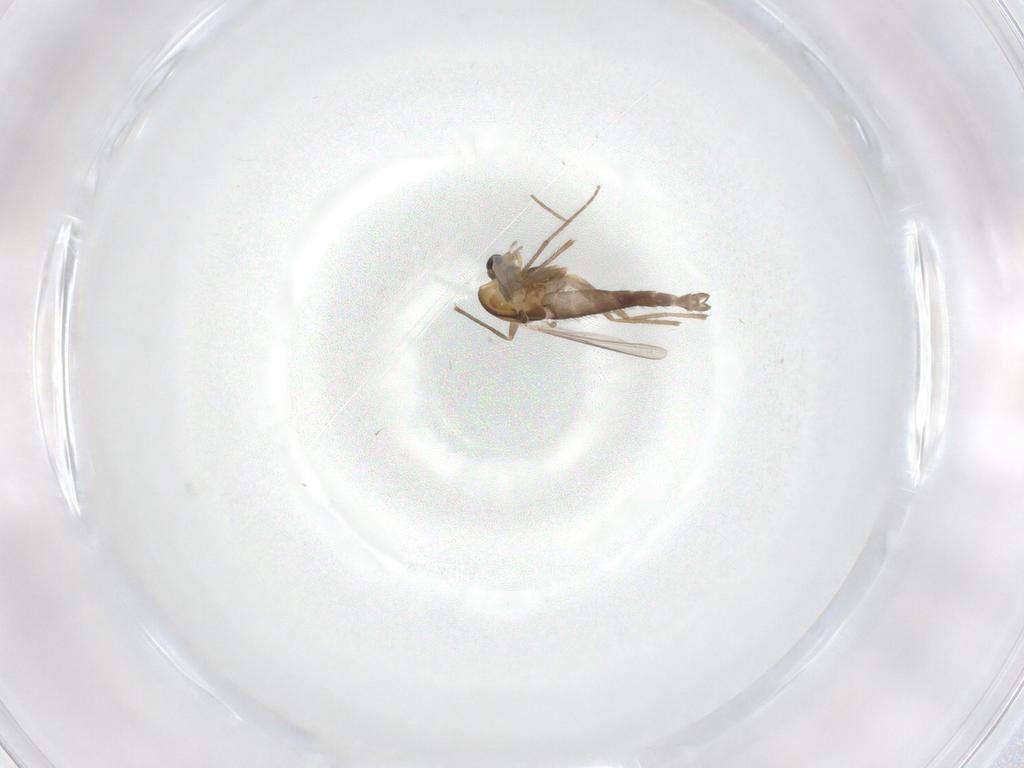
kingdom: Animalia
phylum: Arthropoda
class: Insecta
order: Diptera
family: Chironomidae
